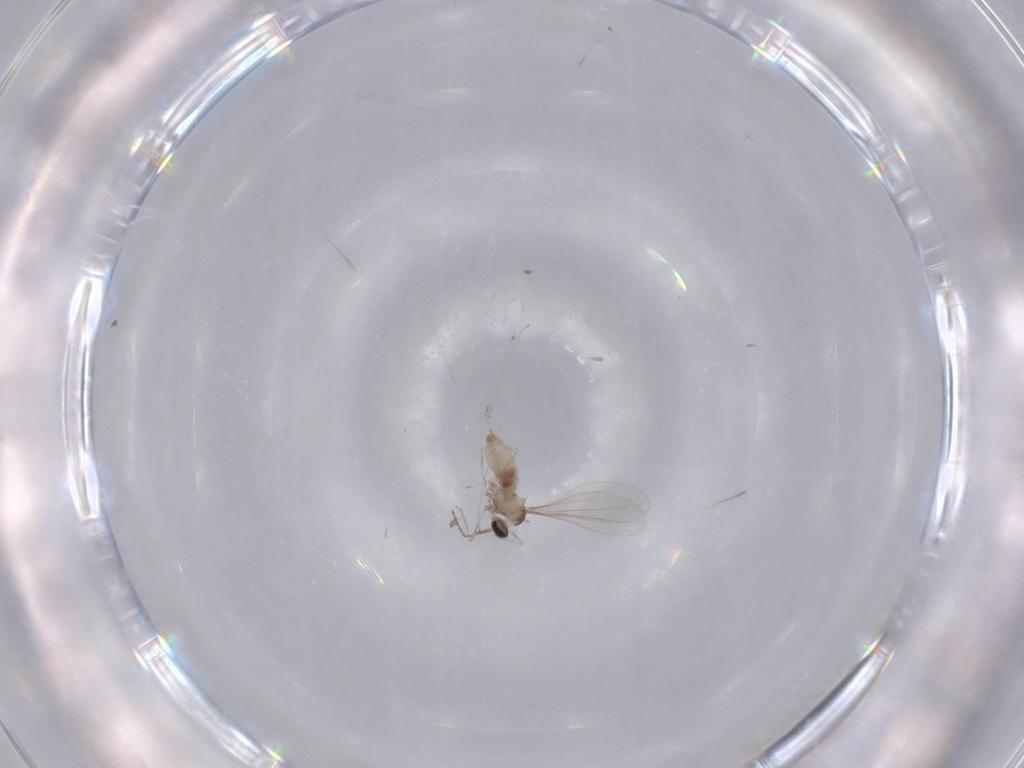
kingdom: Animalia
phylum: Arthropoda
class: Insecta
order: Diptera
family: Cecidomyiidae
